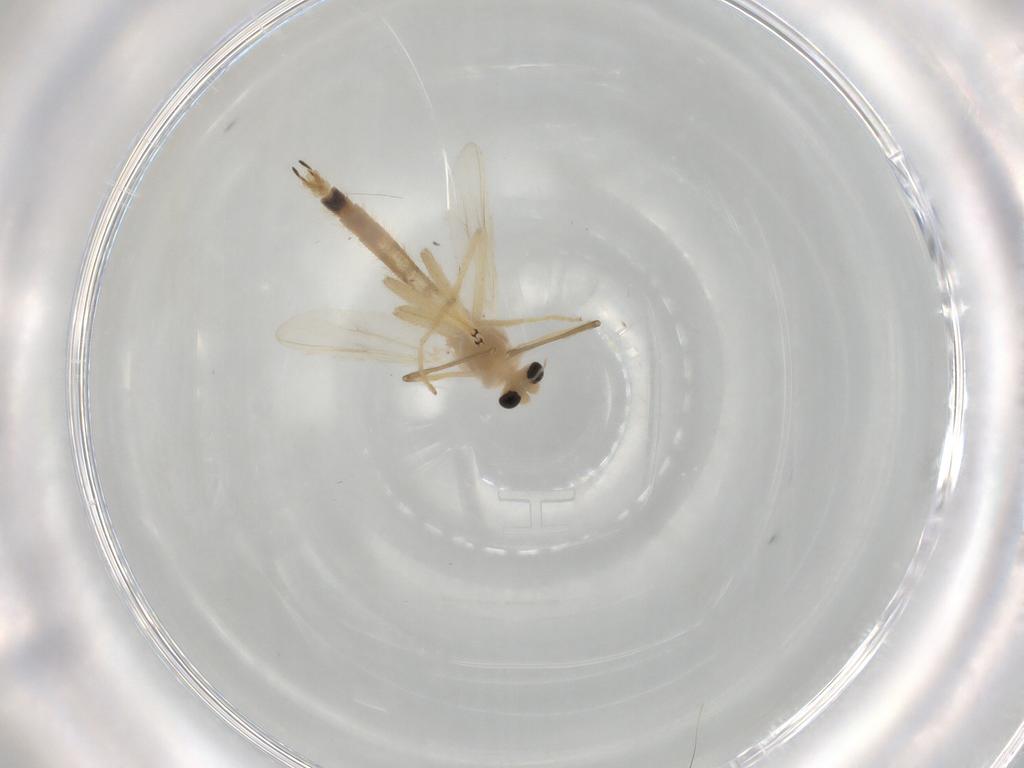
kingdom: Animalia
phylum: Arthropoda
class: Insecta
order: Diptera
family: Chironomidae
